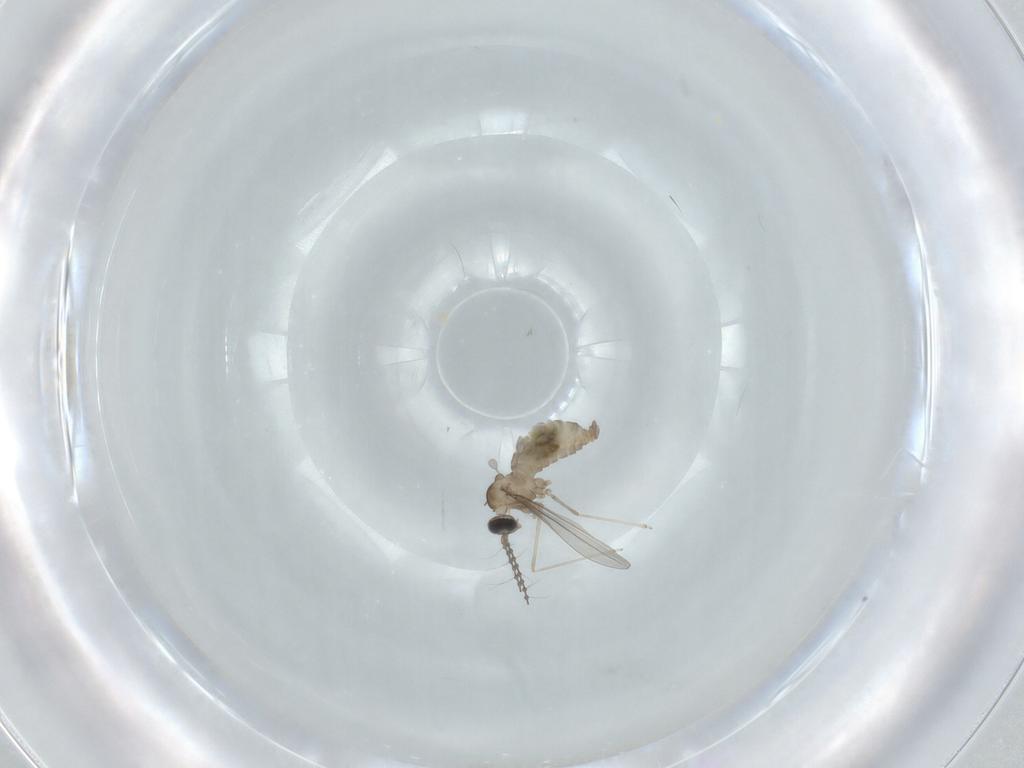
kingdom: Animalia
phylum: Arthropoda
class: Insecta
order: Diptera
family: Cecidomyiidae
